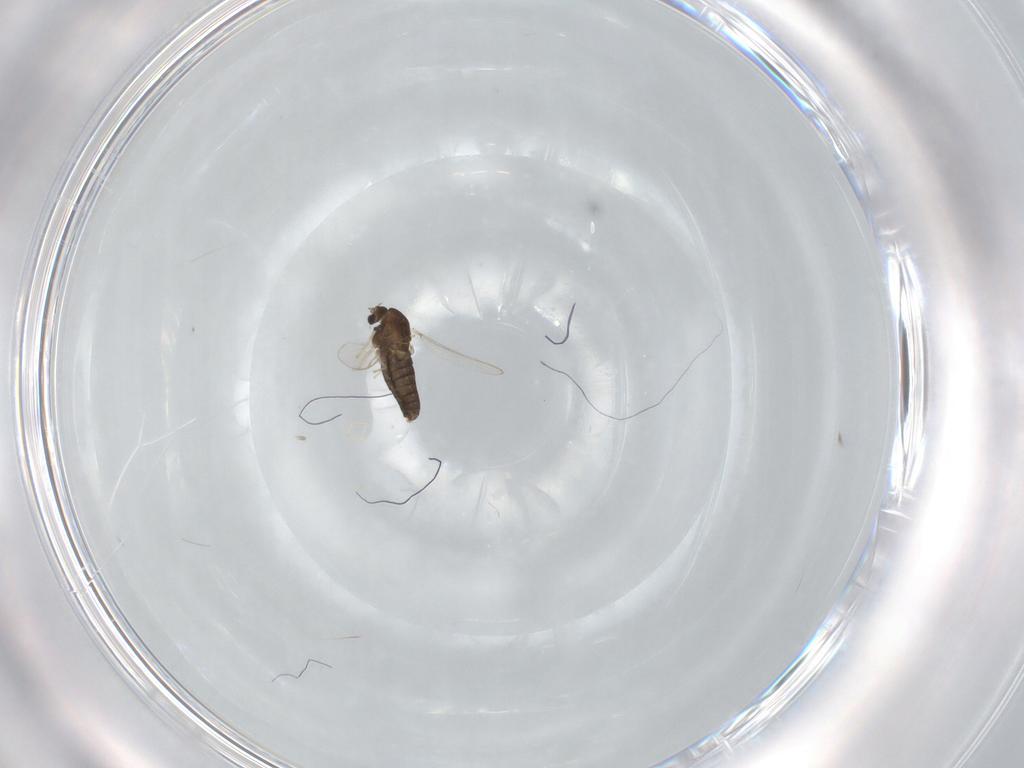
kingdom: Animalia
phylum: Arthropoda
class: Insecta
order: Diptera
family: Chironomidae
